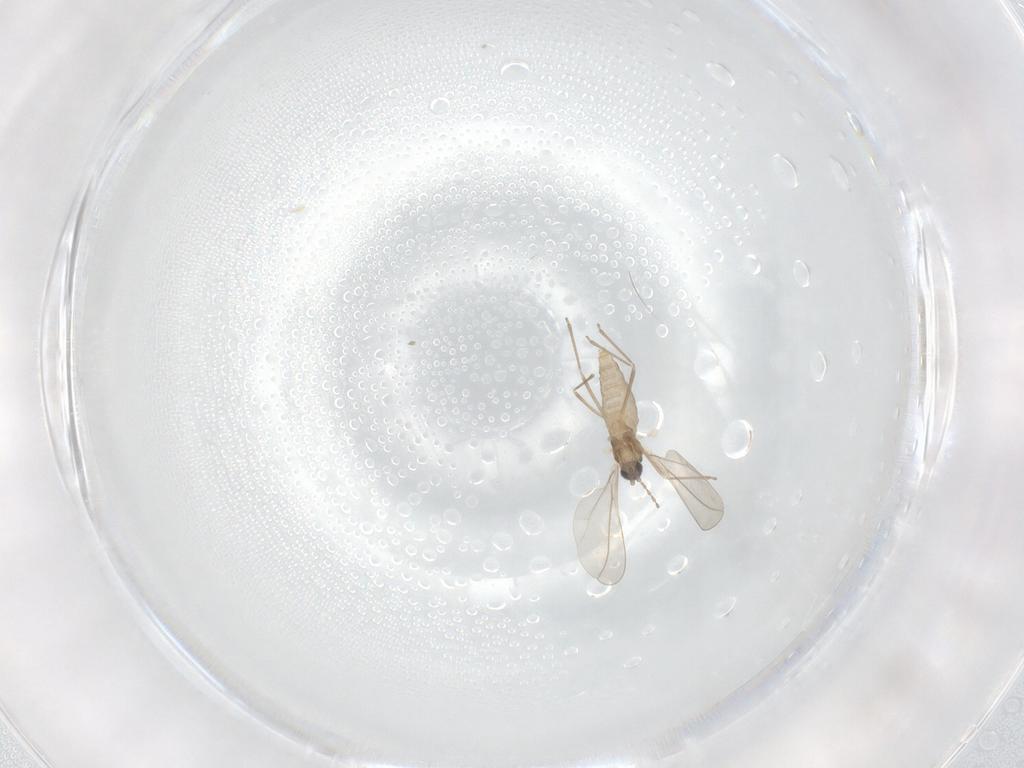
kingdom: Animalia
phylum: Arthropoda
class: Insecta
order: Diptera
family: Cecidomyiidae
